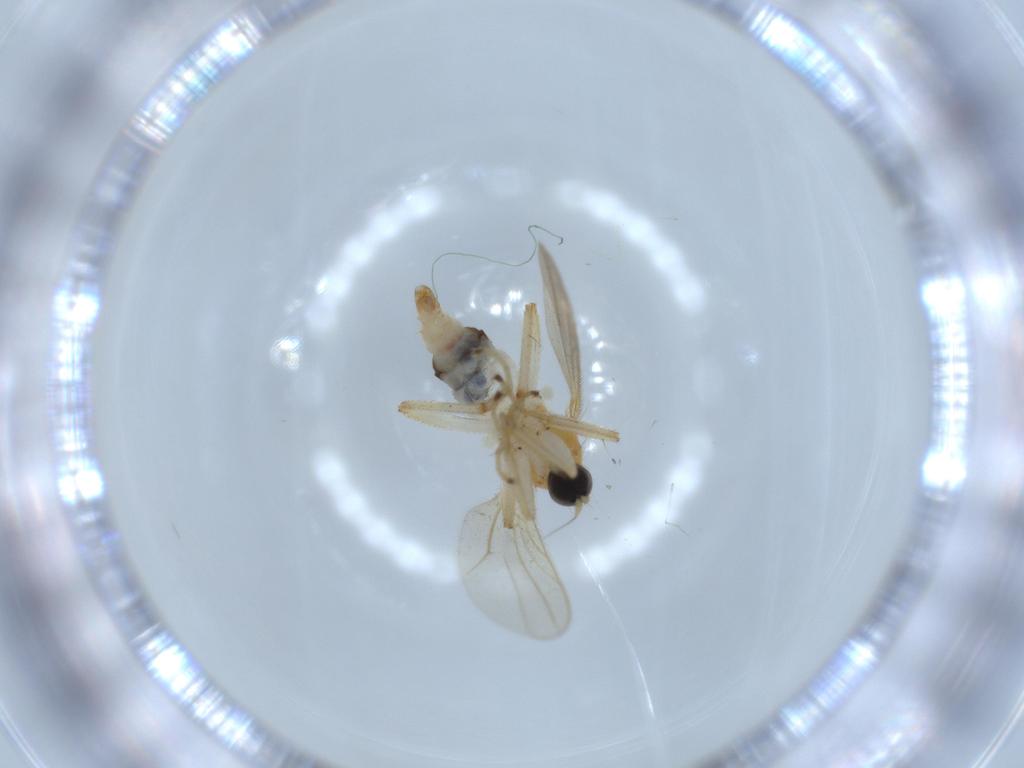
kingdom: Animalia
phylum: Arthropoda
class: Insecta
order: Diptera
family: Hybotidae
